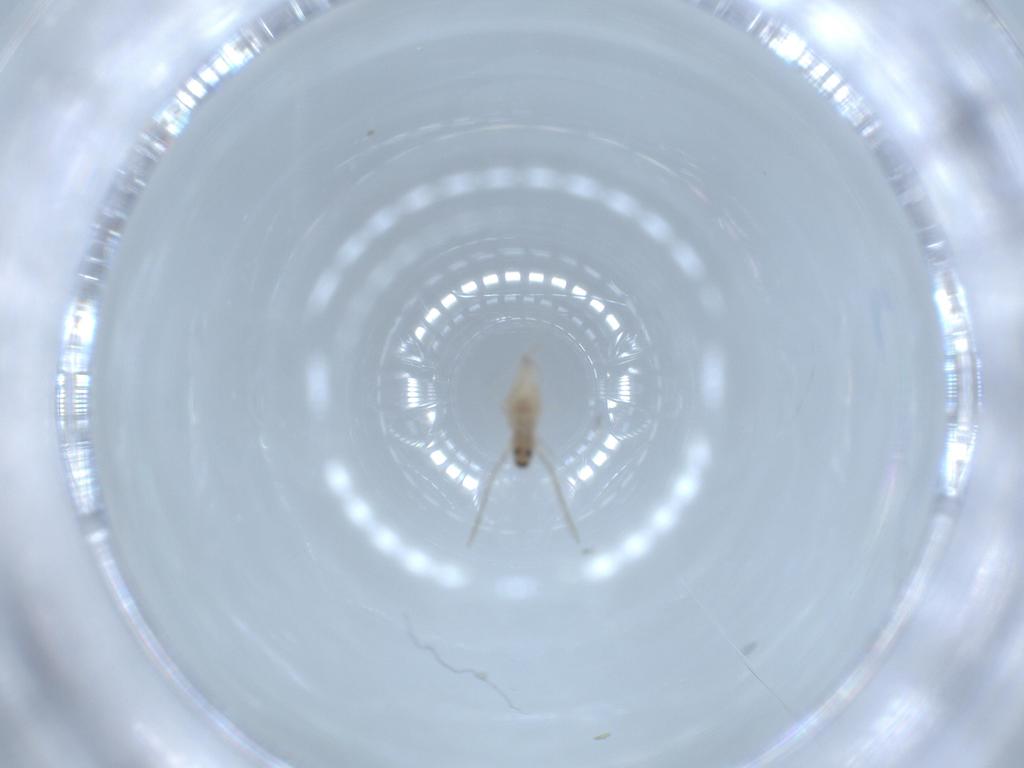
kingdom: Animalia
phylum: Arthropoda
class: Insecta
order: Diptera
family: Cecidomyiidae
